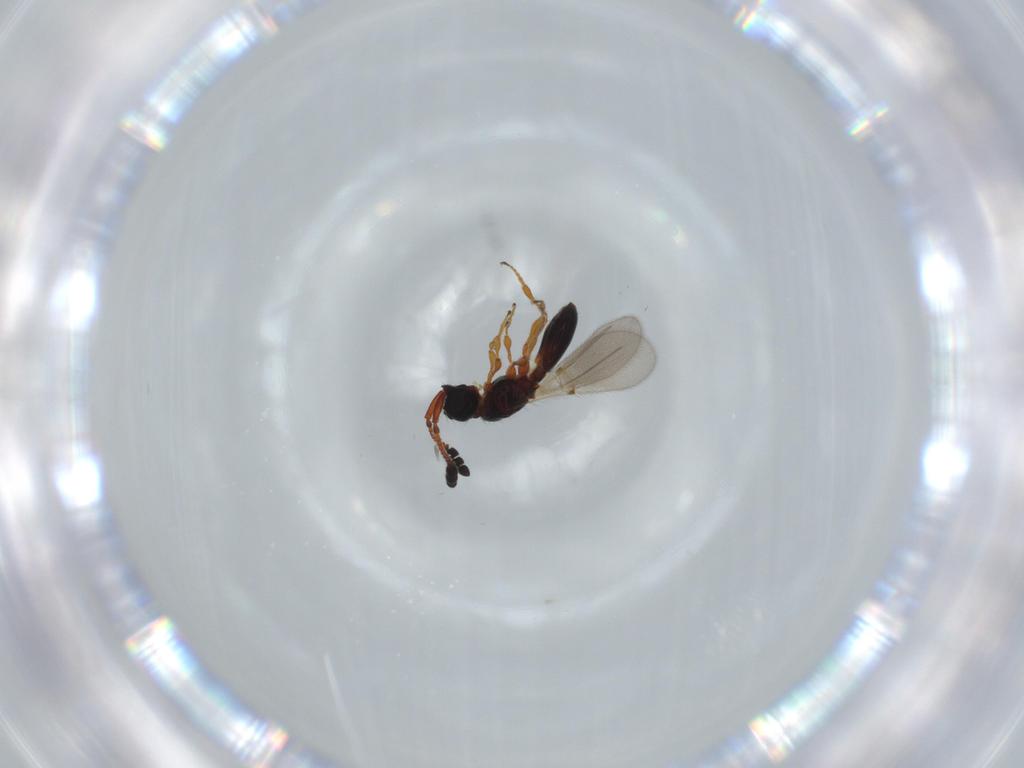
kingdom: Animalia
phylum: Arthropoda
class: Insecta
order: Hymenoptera
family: Diapriidae
